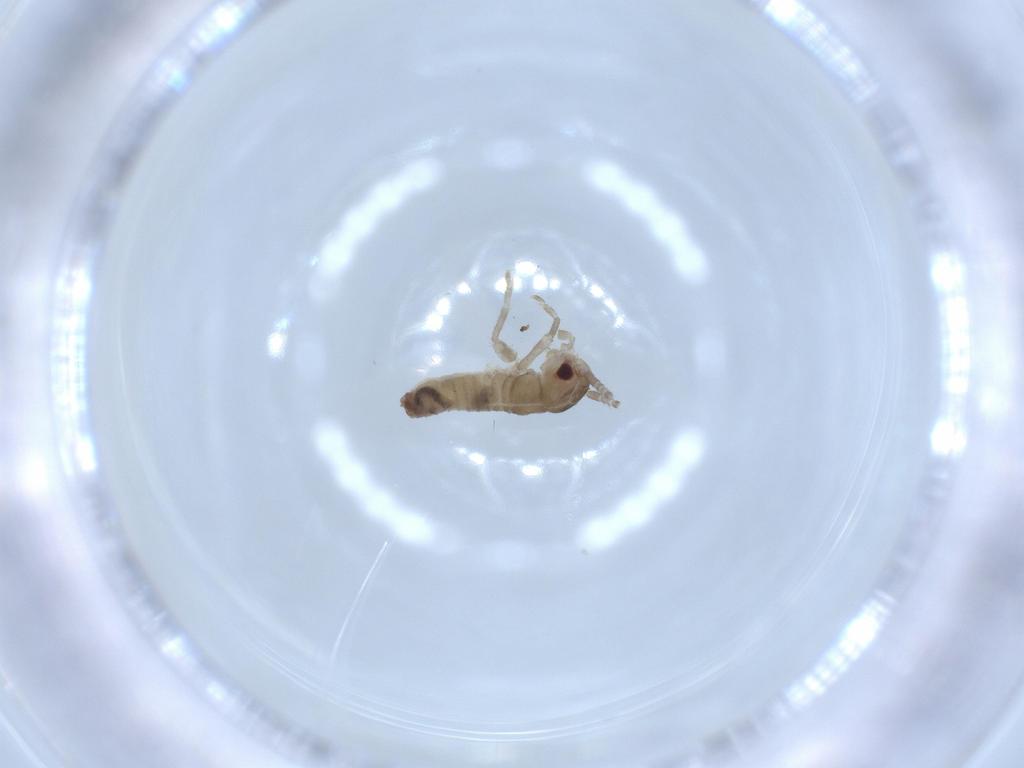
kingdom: Animalia
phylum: Arthropoda
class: Insecta
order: Orthoptera
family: Gryllidae
